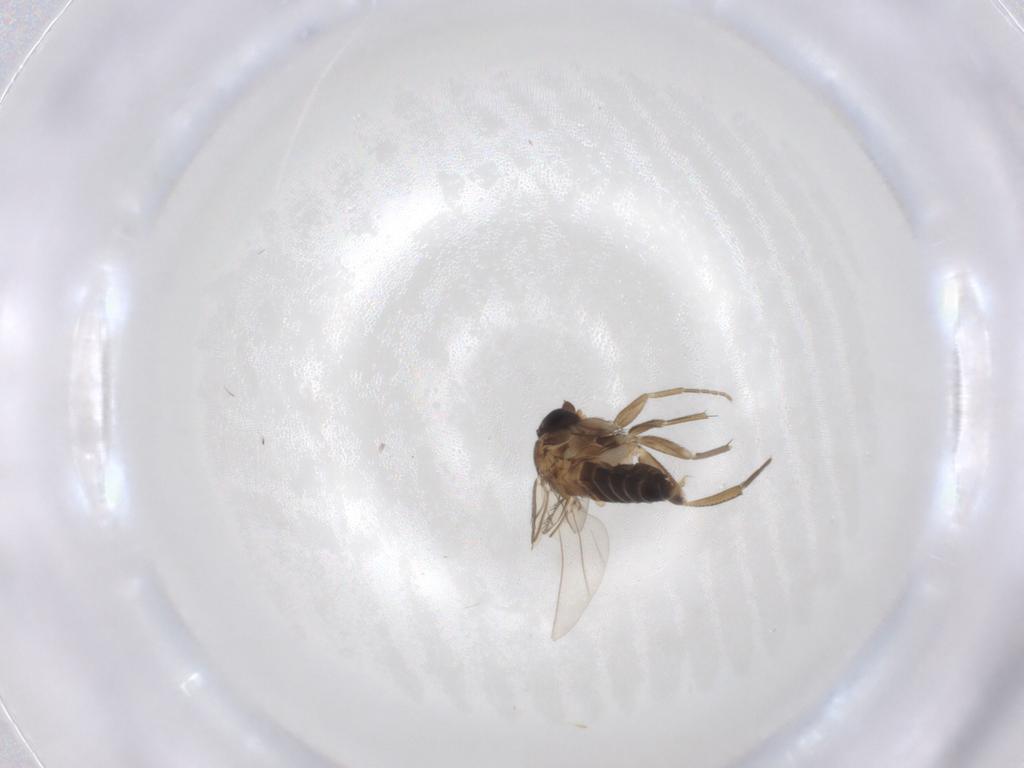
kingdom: Animalia
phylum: Arthropoda
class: Insecta
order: Diptera
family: Phoridae
